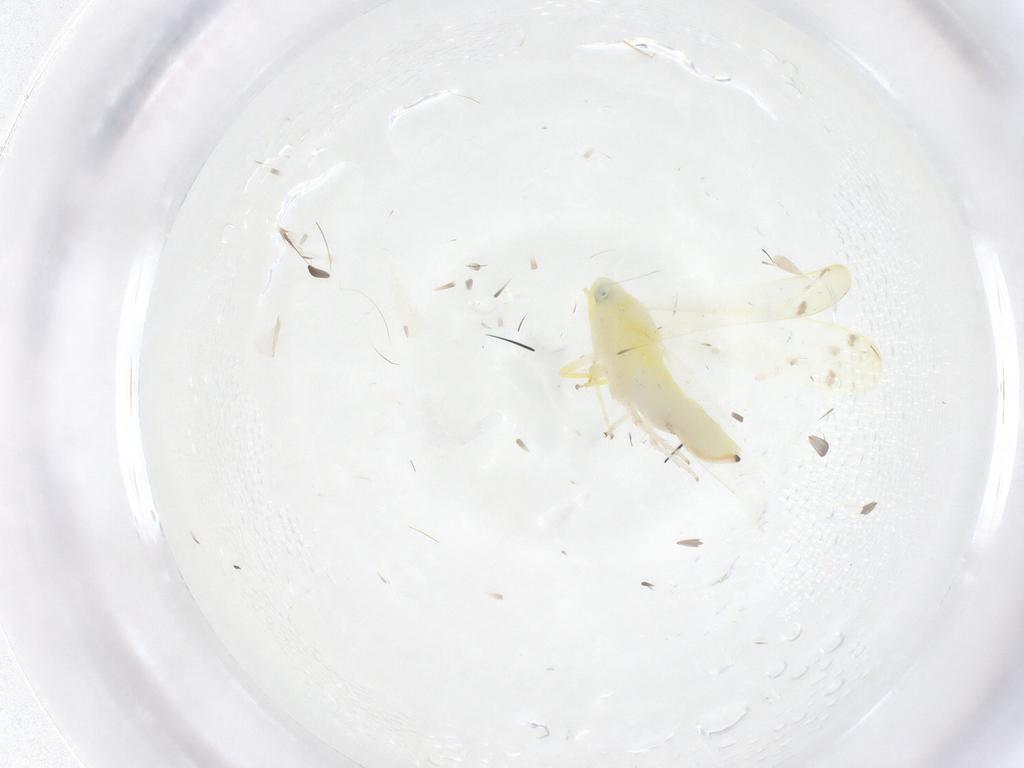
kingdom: Animalia
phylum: Arthropoda
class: Insecta
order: Hemiptera
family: Cicadellidae
